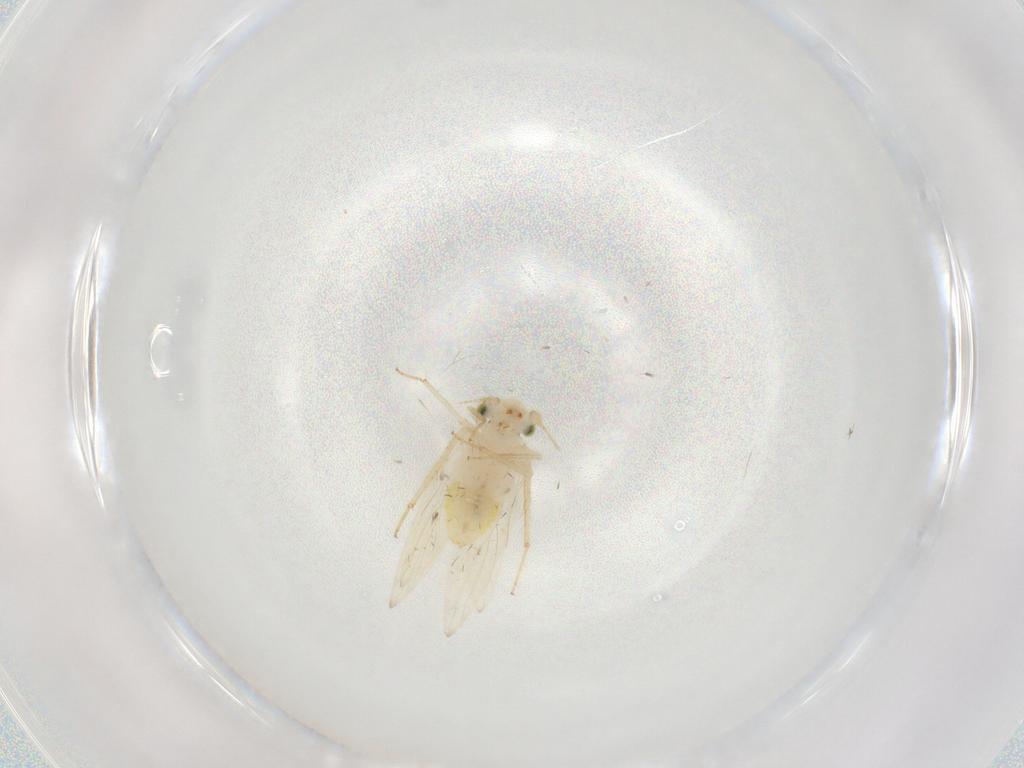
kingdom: Animalia
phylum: Arthropoda
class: Insecta
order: Psocodea
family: Lepidopsocidae
